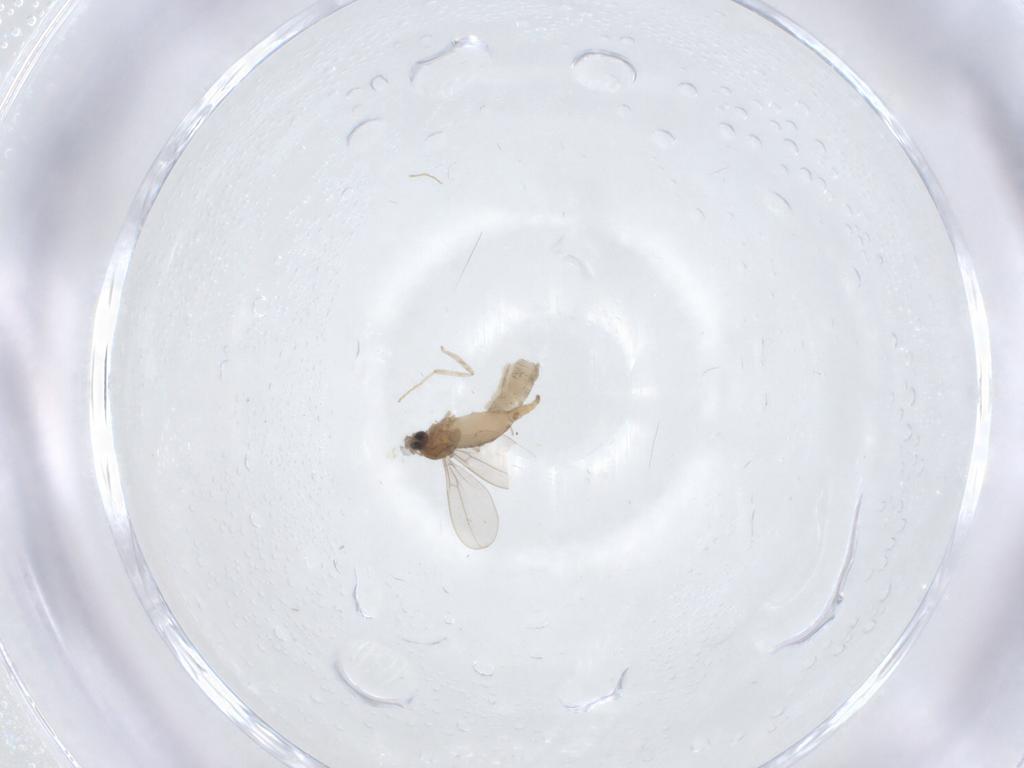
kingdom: Animalia
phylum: Arthropoda
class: Insecta
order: Diptera
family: Cecidomyiidae
